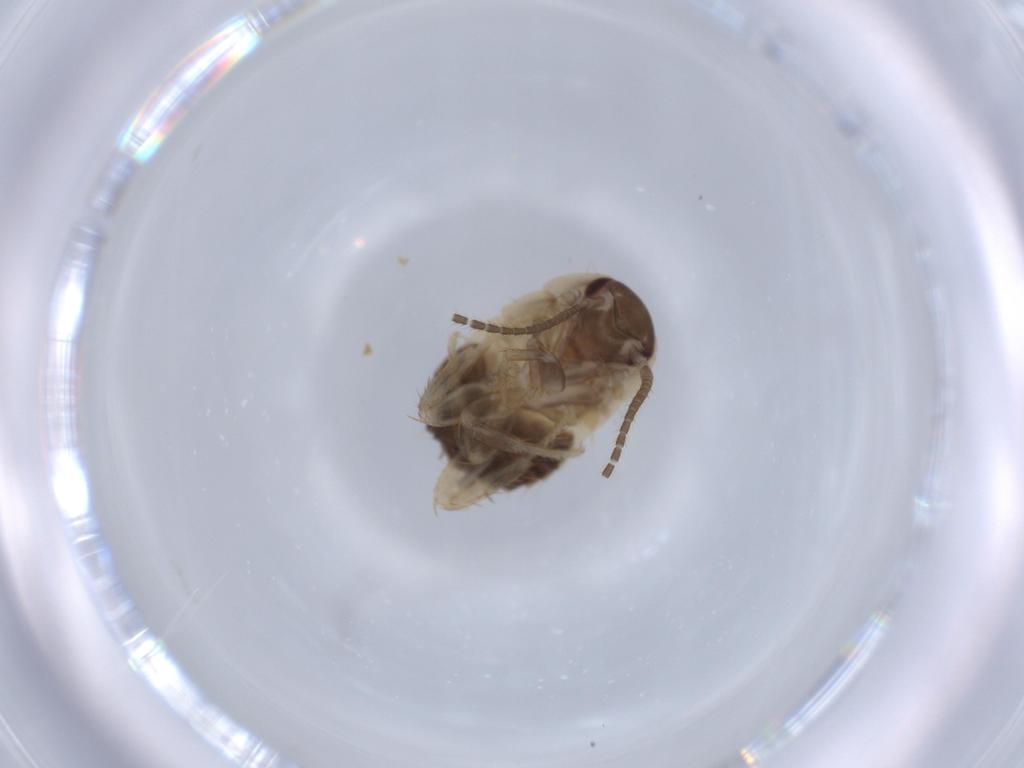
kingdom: Animalia
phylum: Arthropoda
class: Insecta
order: Blattodea
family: Ectobiidae
